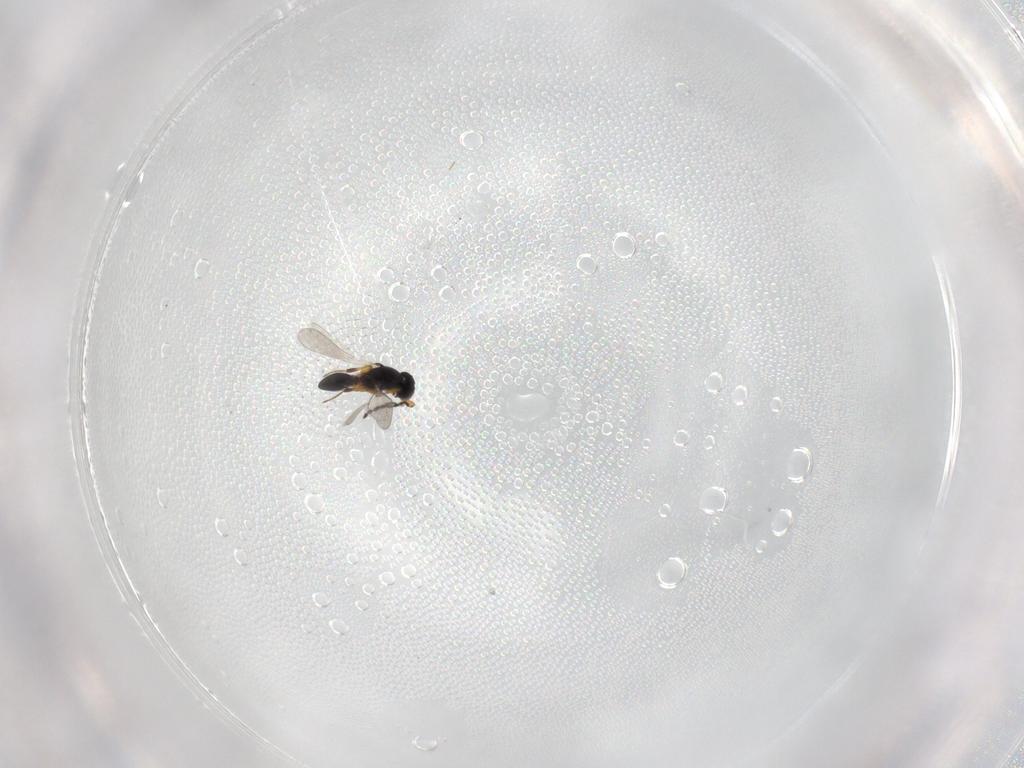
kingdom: Animalia
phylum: Arthropoda
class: Insecta
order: Hymenoptera
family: Platygastridae
